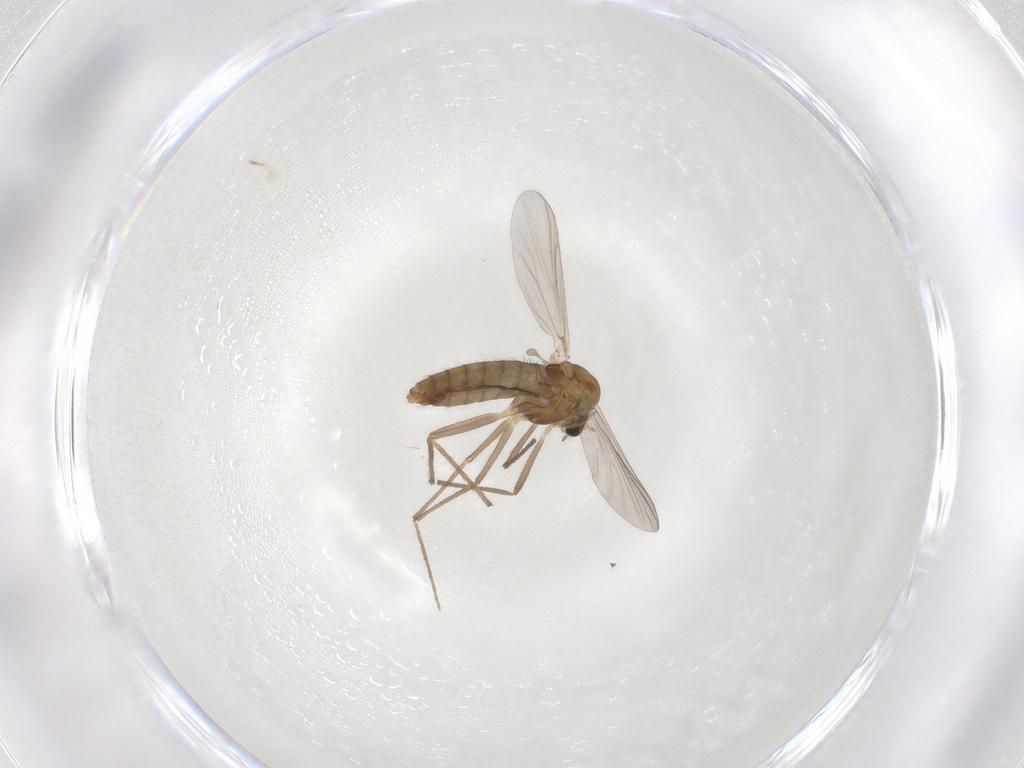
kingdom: Animalia
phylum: Arthropoda
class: Insecta
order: Diptera
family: Chironomidae
